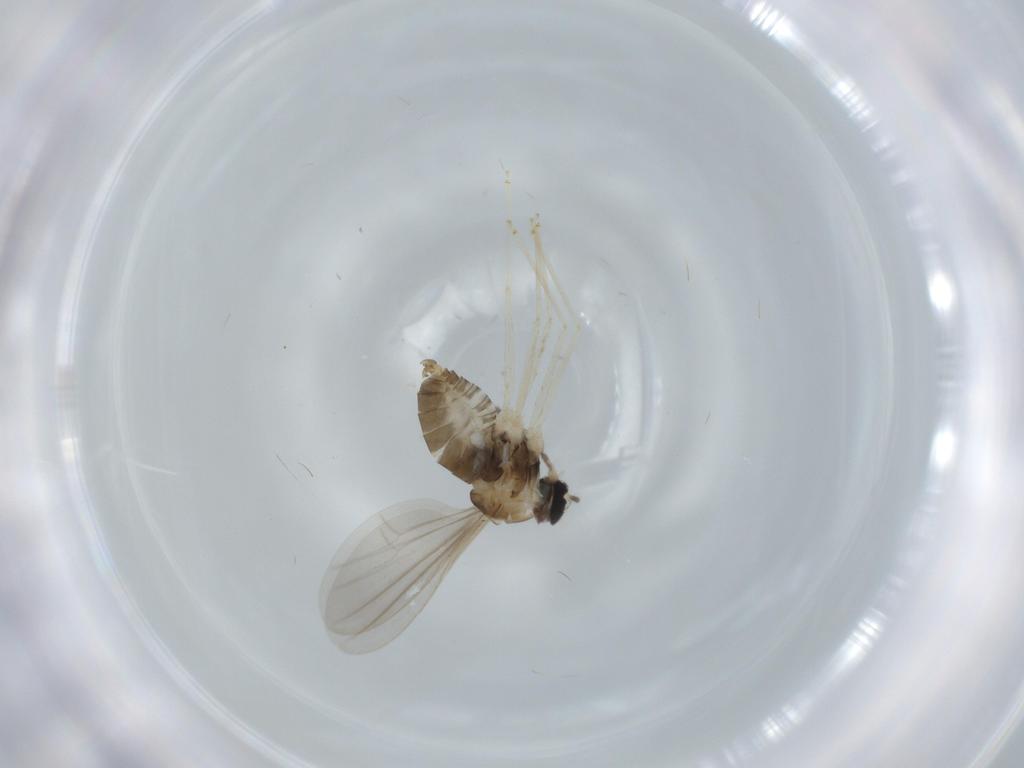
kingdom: Animalia
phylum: Arthropoda
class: Insecta
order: Diptera
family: Cecidomyiidae
